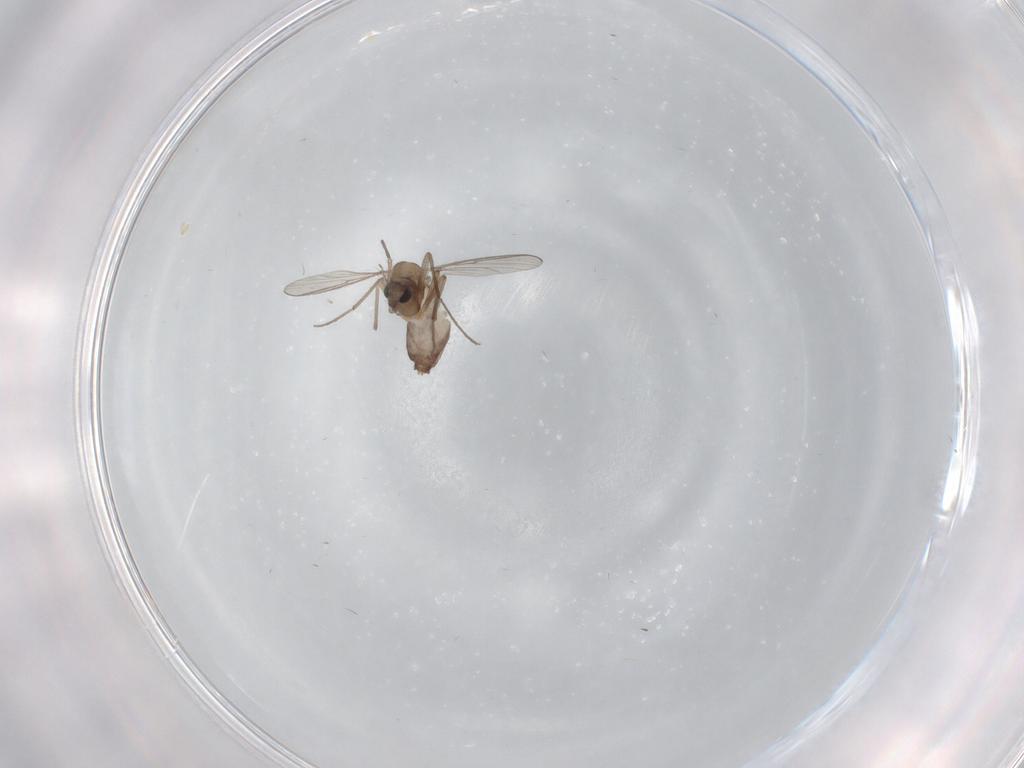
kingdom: Animalia
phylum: Arthropoda
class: Insecta
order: Diptera
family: Chironomidae
